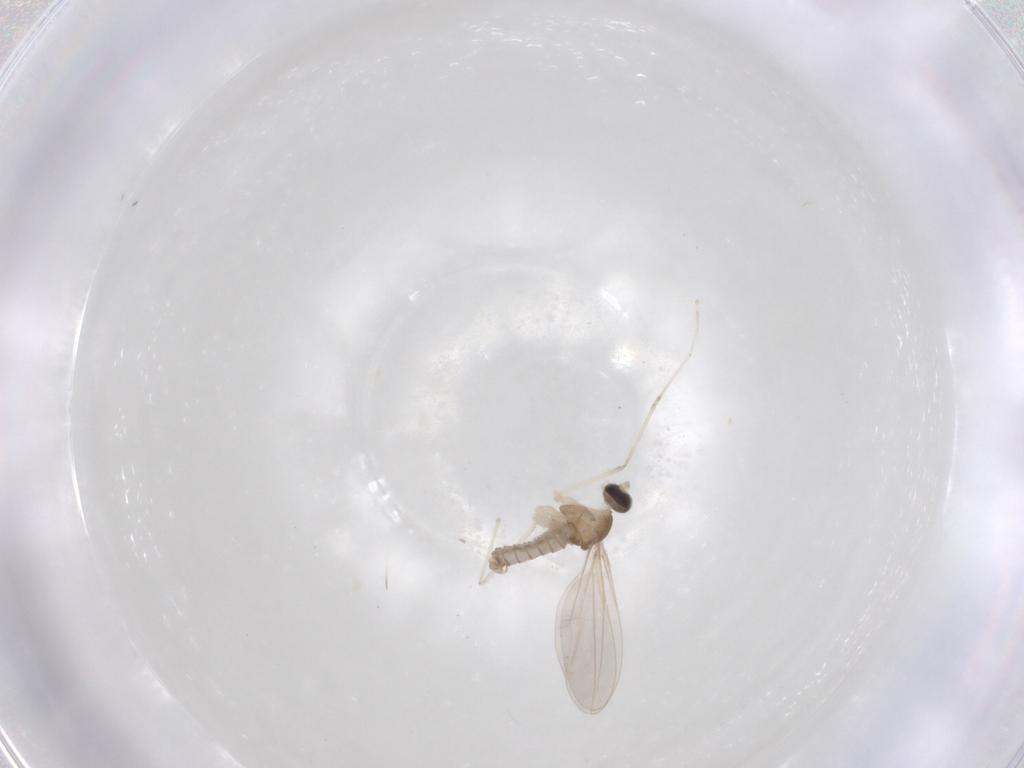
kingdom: Animalia
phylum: Arthropoda
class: Insecta
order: Diptera
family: Cecidomyiidae
